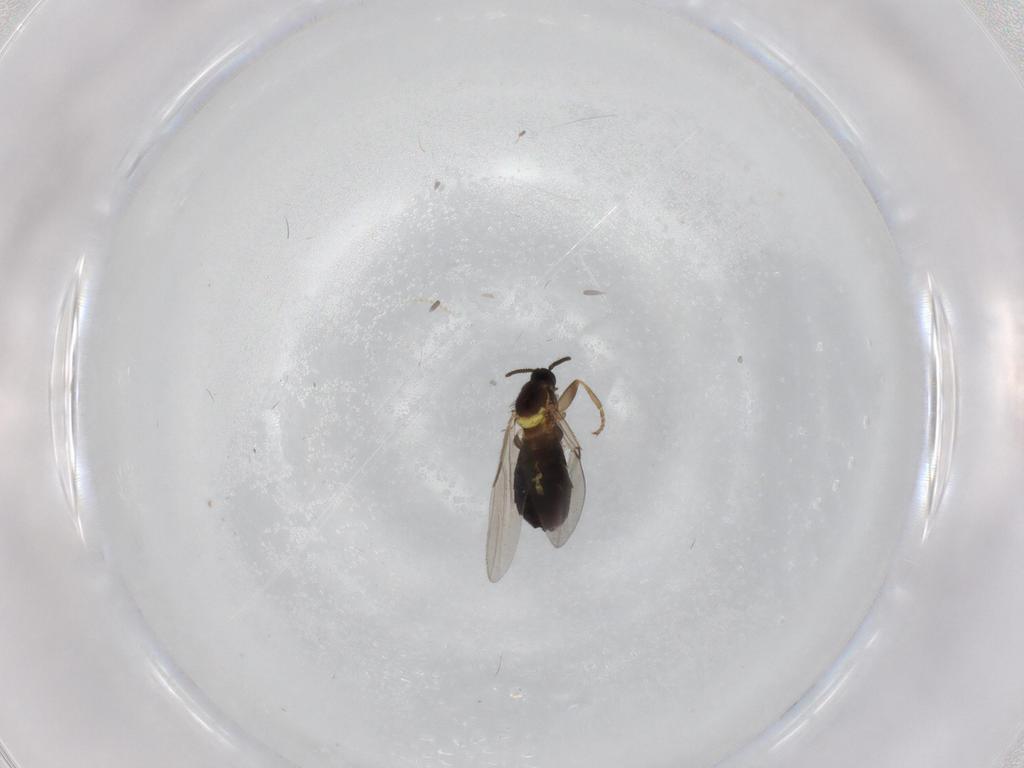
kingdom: Animalia
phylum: Arthropoda
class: Insecta
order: Diptera
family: Scatopsidae
